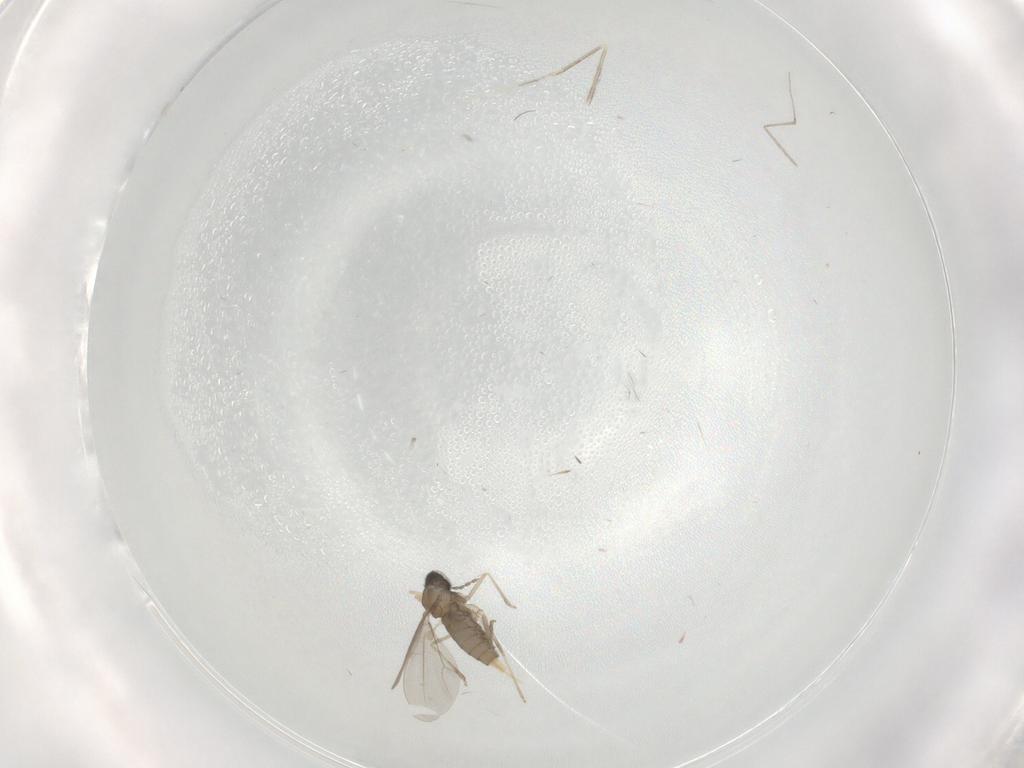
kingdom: Animalia
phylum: Arthropoda
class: Insecta
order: Diptera
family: Cecidomyiidae
